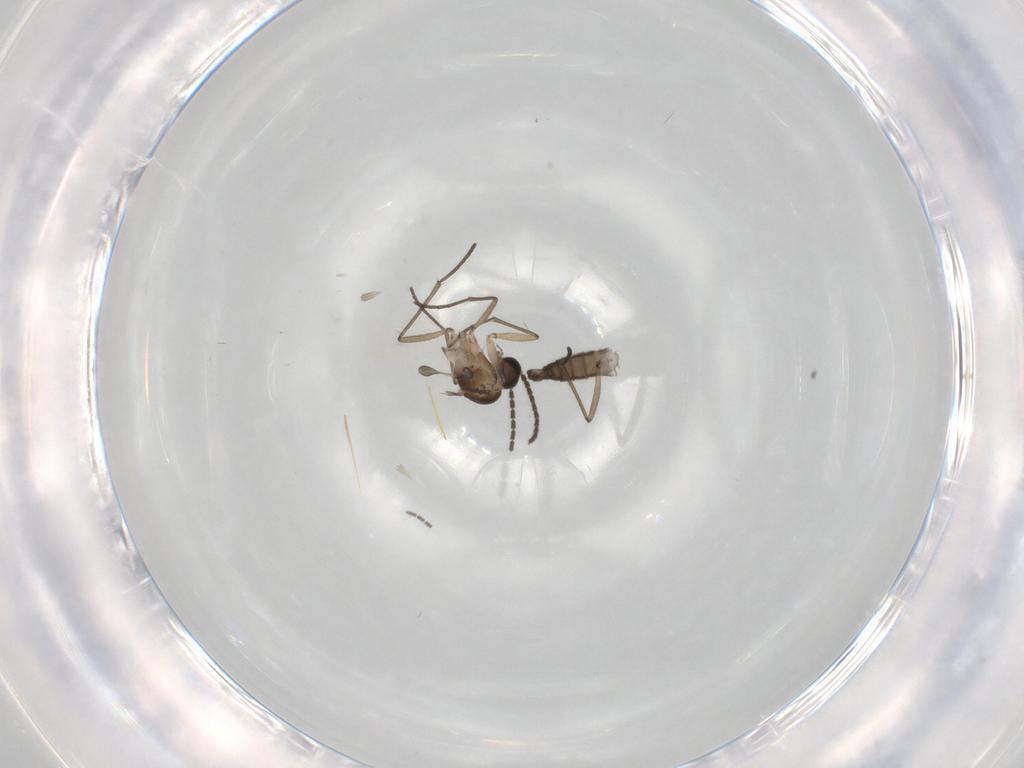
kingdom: Animalia
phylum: Arthropoda
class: Insecta
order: Diptera
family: Sciaridae
